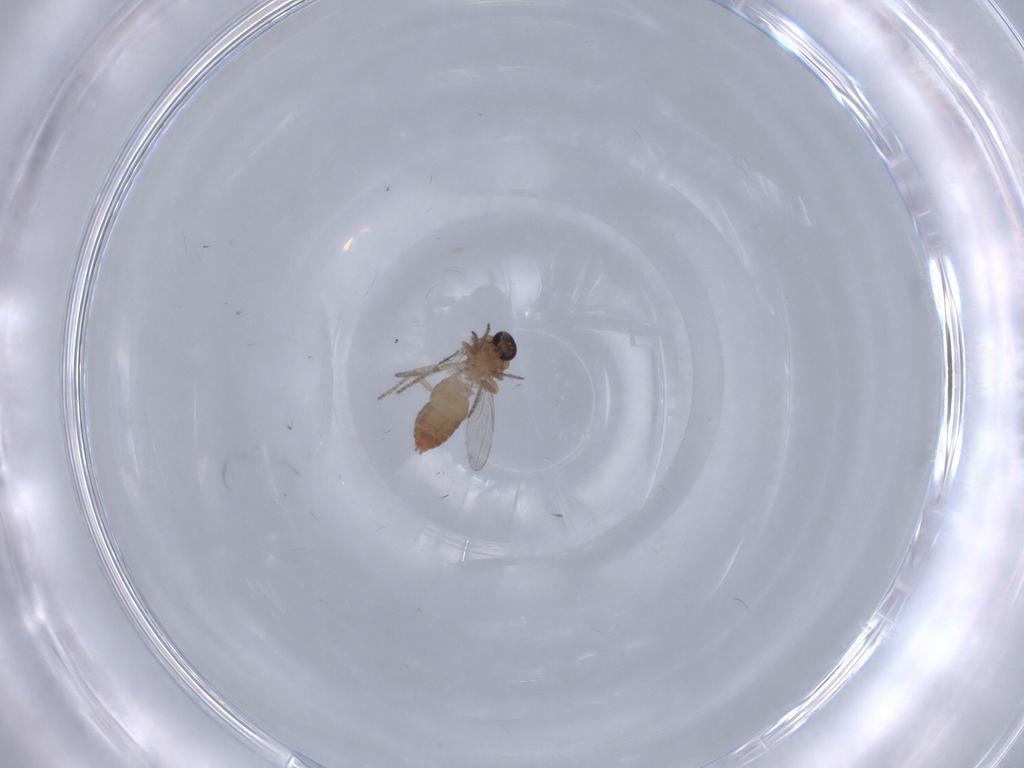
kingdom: Animalia
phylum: Arthropoda
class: Insecta
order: Diptera
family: Ceratopogonidae
